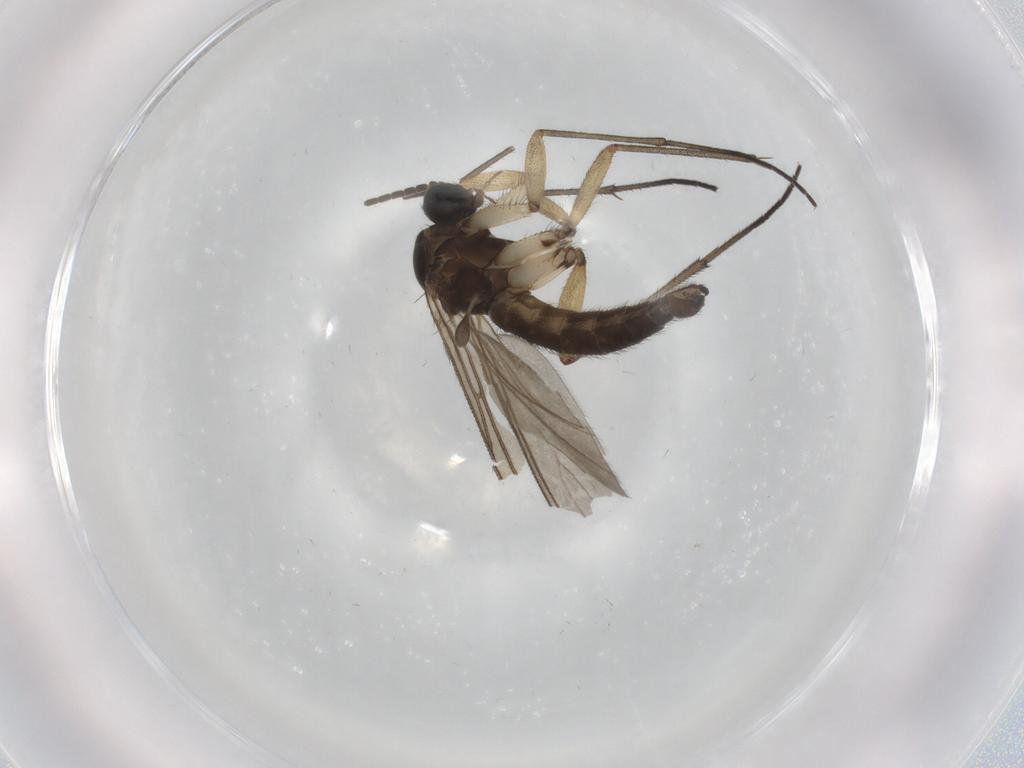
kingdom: Animalia
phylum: Arthropoda
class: Insecta
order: Diptera
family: Sciaridae
